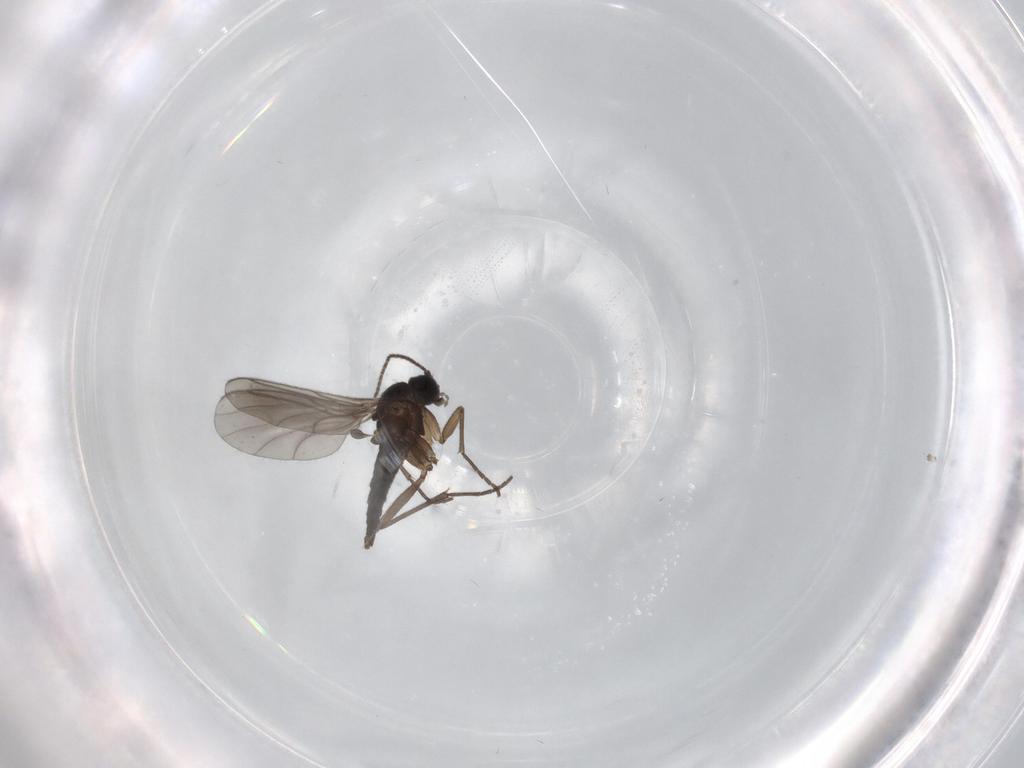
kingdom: Animalia
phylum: Arthropoda
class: Insecta
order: Diptera
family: Sciaridae
